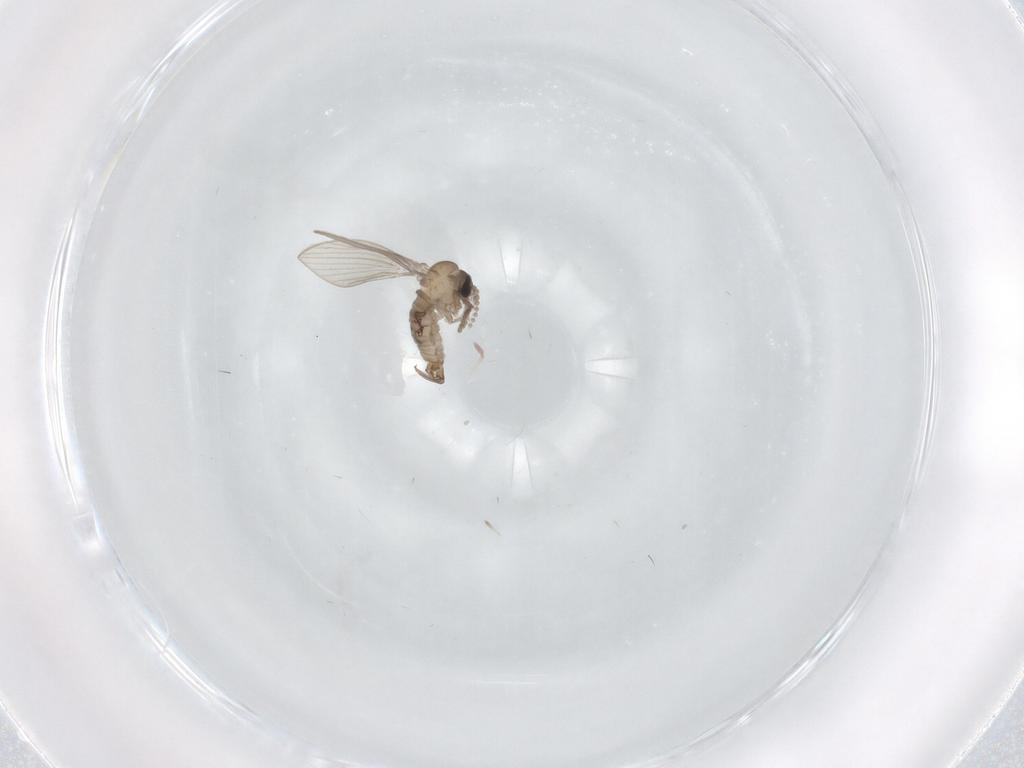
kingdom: Animalia
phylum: Arthropoda
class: Insecta
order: Diptera
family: Psychodidae
